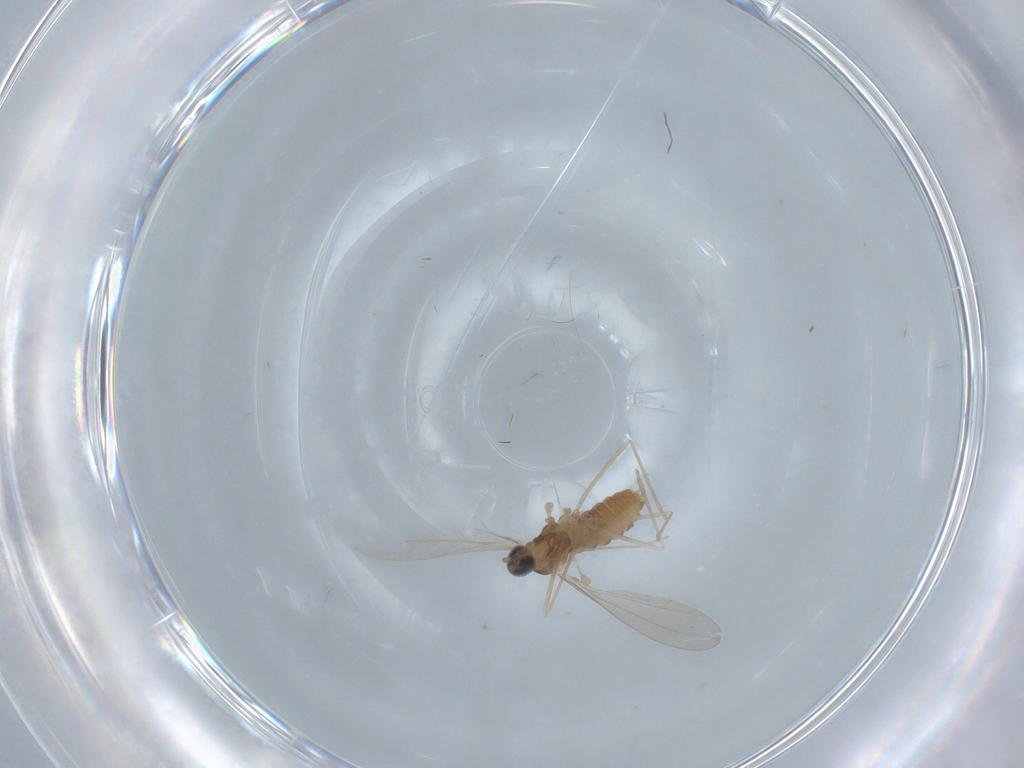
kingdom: Animalia
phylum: Arthropoda
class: Insecta
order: Diptera
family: Cecidomyiidae
